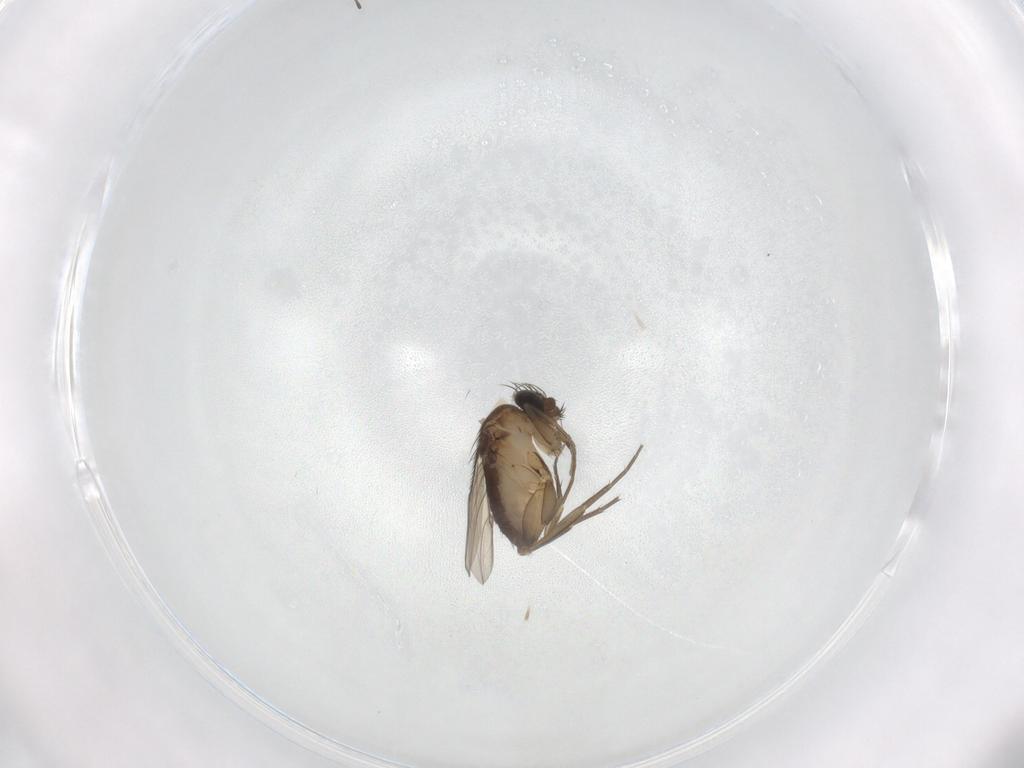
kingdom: Animalia
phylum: Arthropoda
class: Insecta
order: Diptera
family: Phoridae
